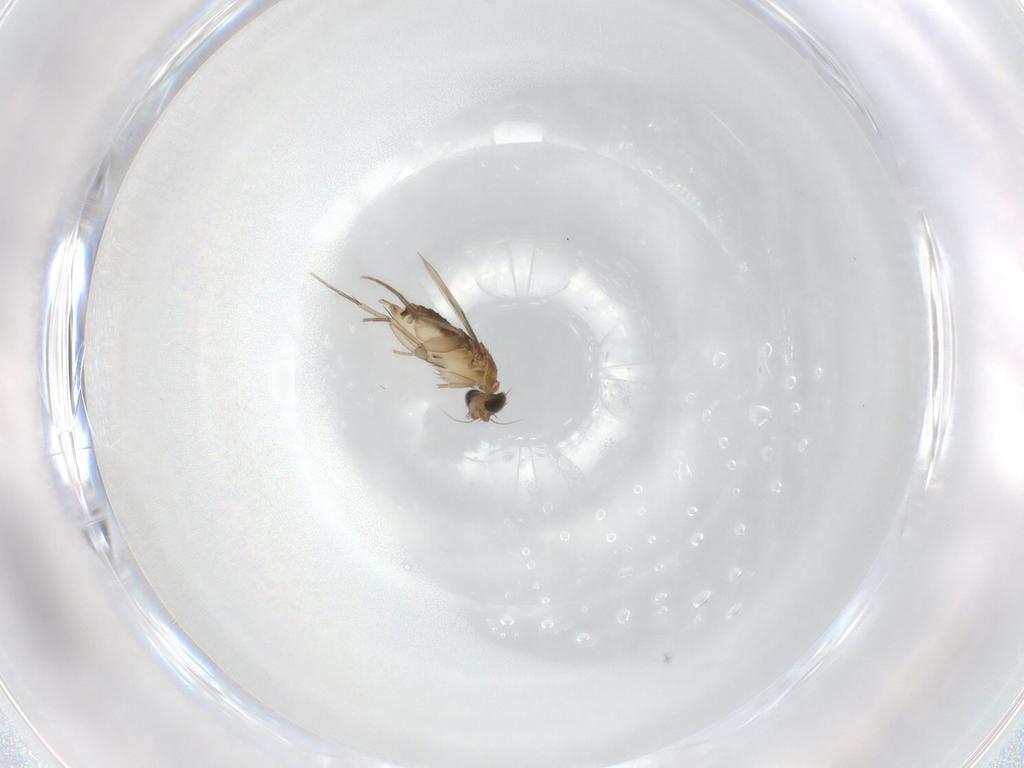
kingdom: Animalia
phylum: Arthropoda
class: Insecta
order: Diptera
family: Phoridae
